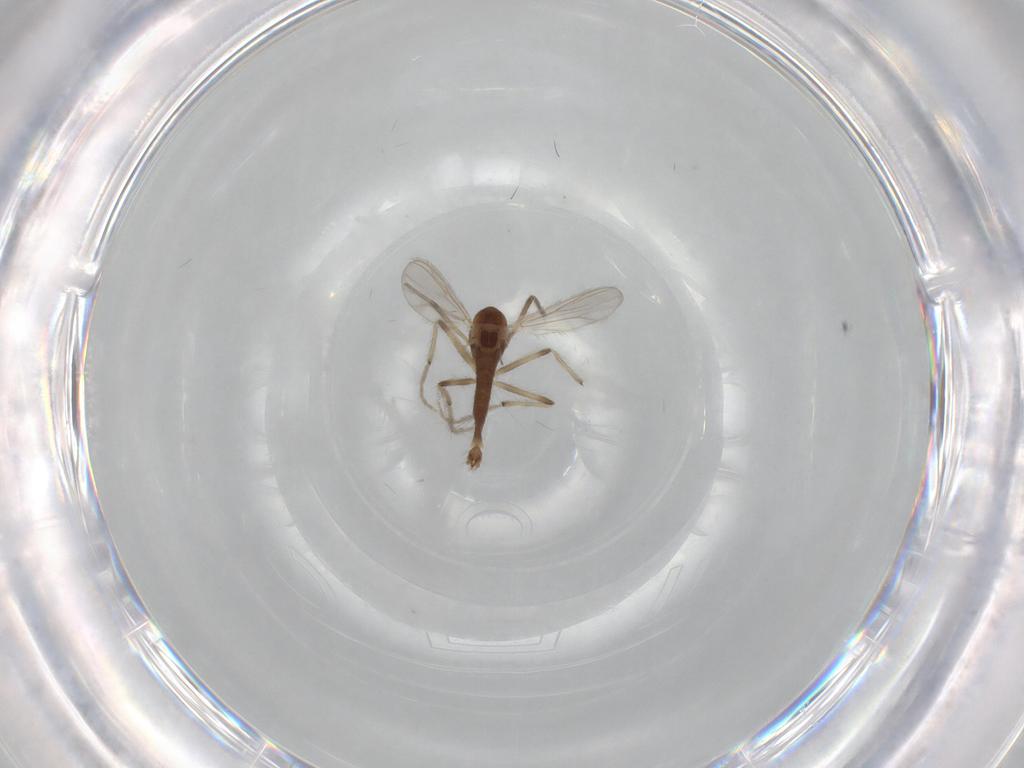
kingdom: Animalia
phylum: Arthropoda
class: Insecta
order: Diptera
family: Chironomidae
